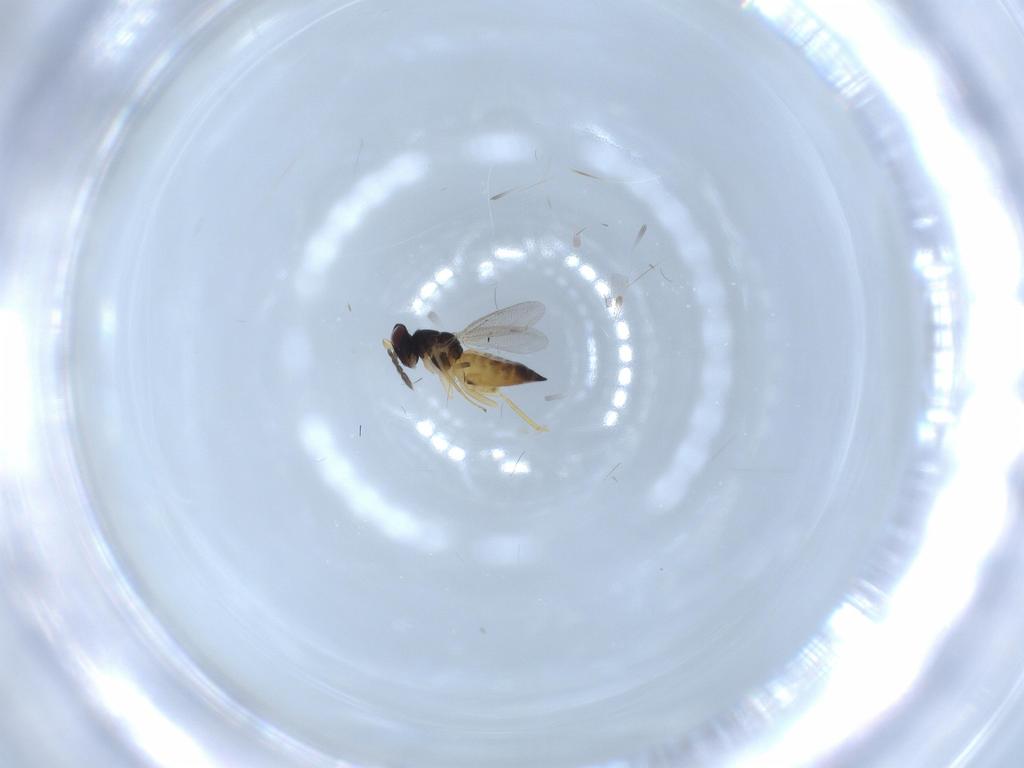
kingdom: Animalia
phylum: Arthropoda
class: Insecta
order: Hymenoptera
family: Eulophidae
